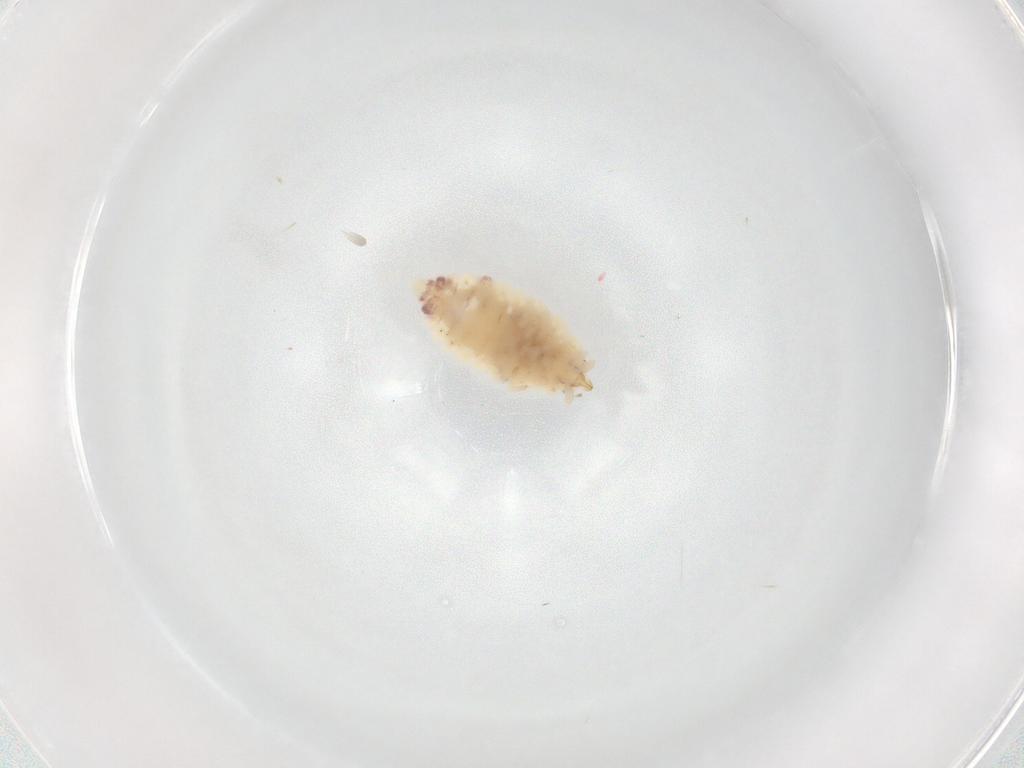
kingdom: Animalia
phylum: Arthropoda
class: Insecta
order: Neuroptera
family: Coniopterygidae
